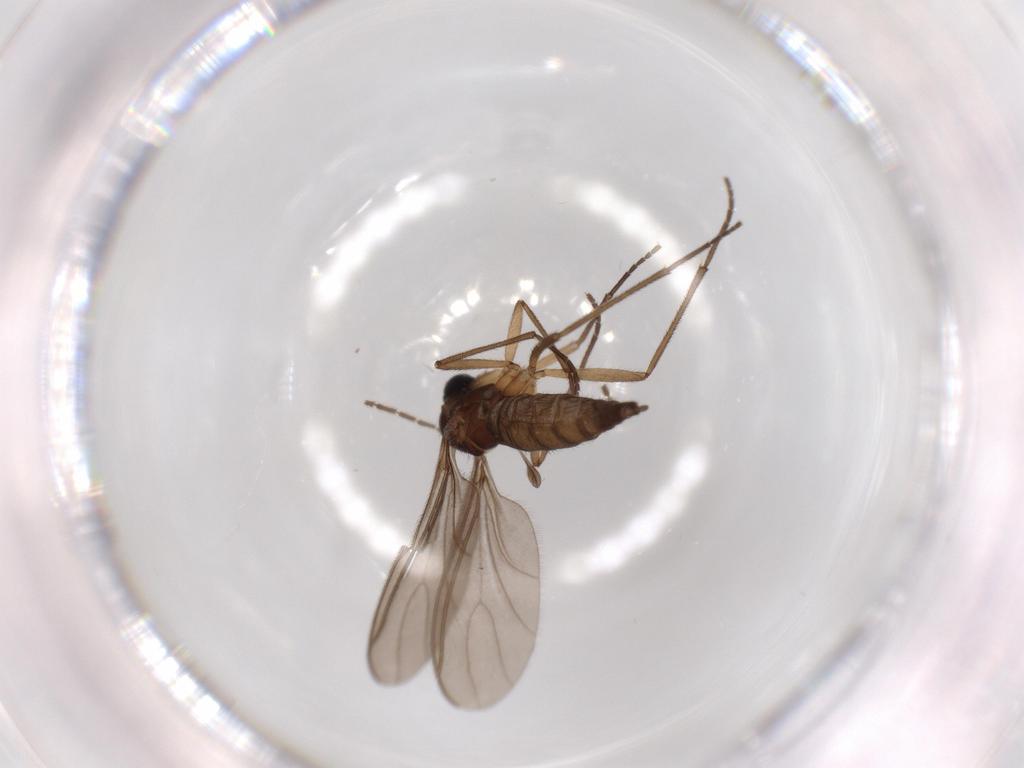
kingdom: Animalia
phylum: Arthropoda
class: Insecta
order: Diptera
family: Sciaridae
